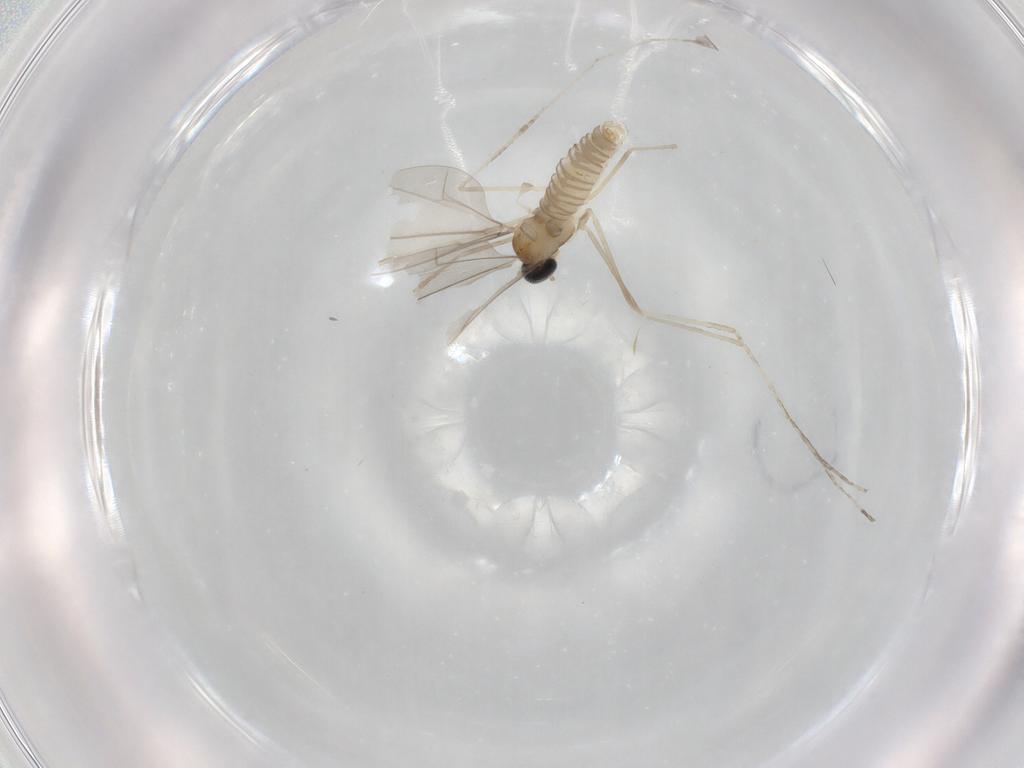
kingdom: Animalia
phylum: Arthropoda
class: Insecta
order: Diptera
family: Cecidomyiidae
